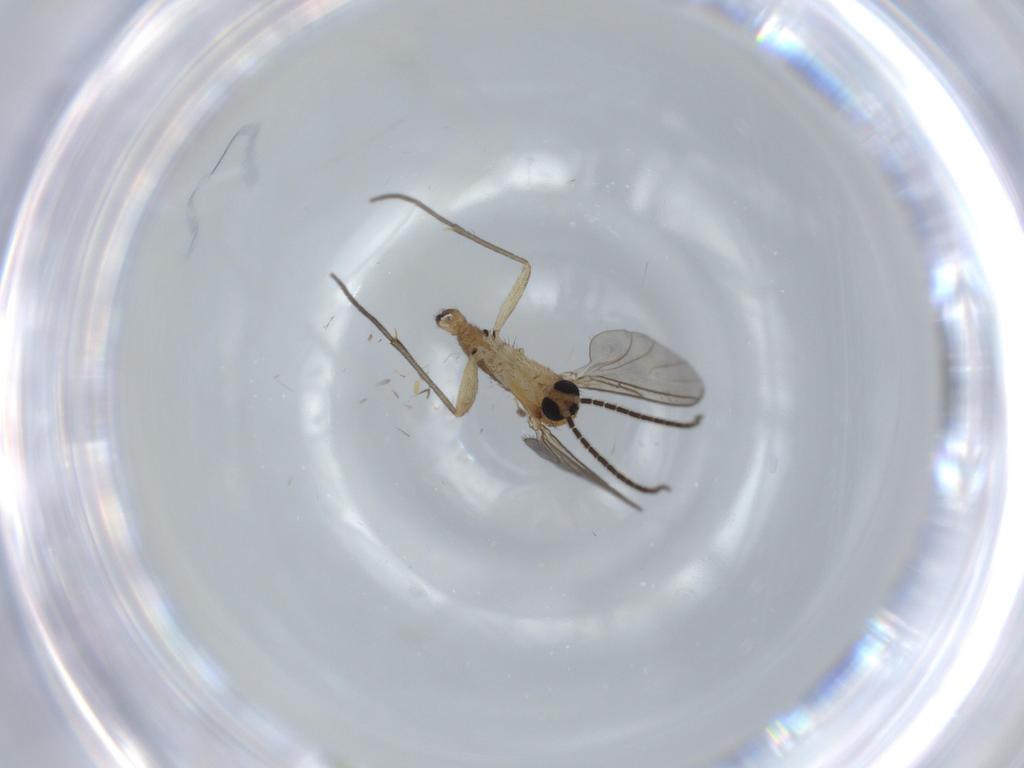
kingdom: Animalia
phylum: Arthropoda
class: Insecta
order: Diptera
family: Sciaridae
